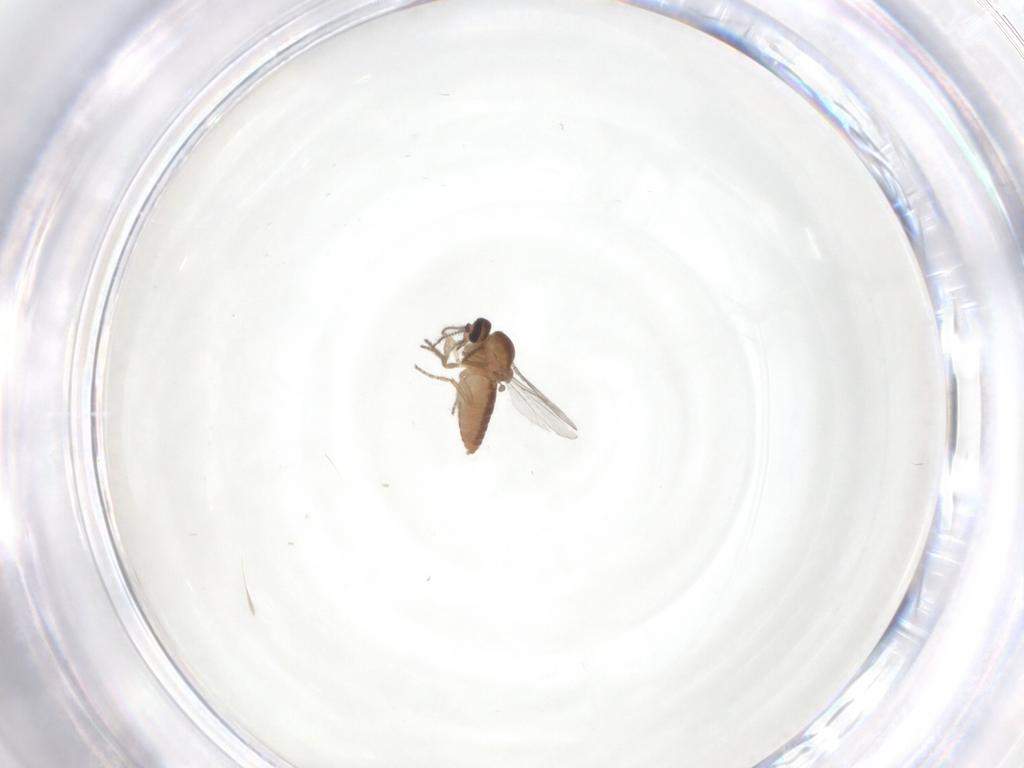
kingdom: Animalia
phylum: Arthropoda
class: Insecta
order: Diptera
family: Ceratopogonidae
